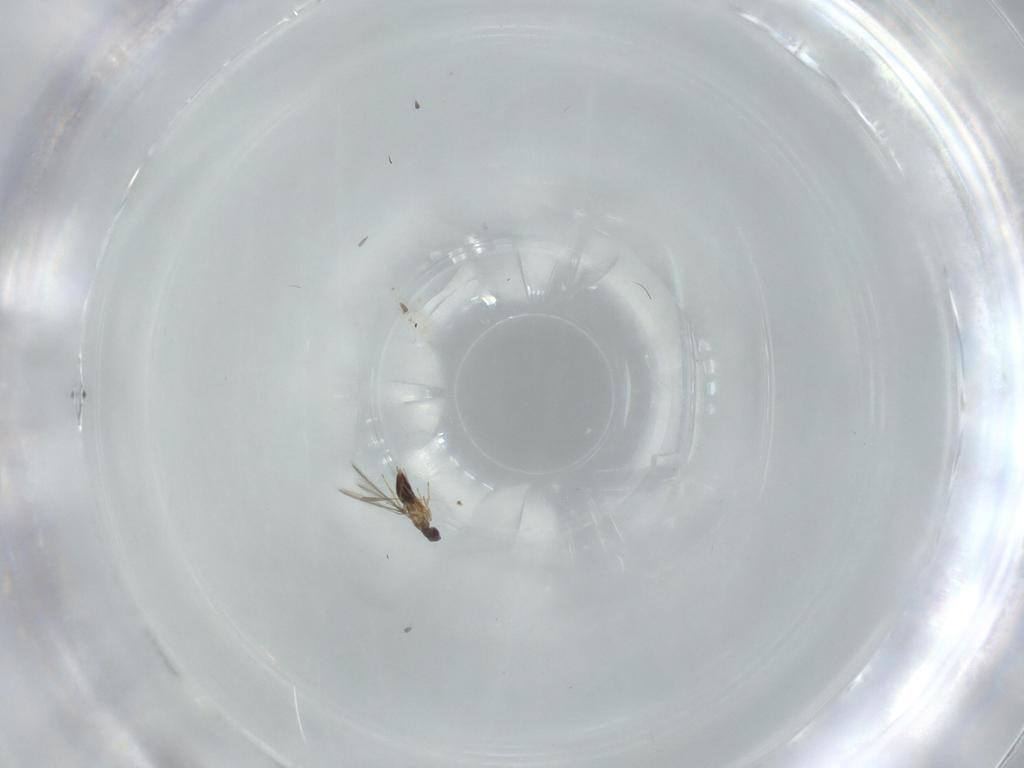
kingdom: Animalia
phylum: Arthropoda
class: Insecta
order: Hymenoptera
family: Mymaridae
